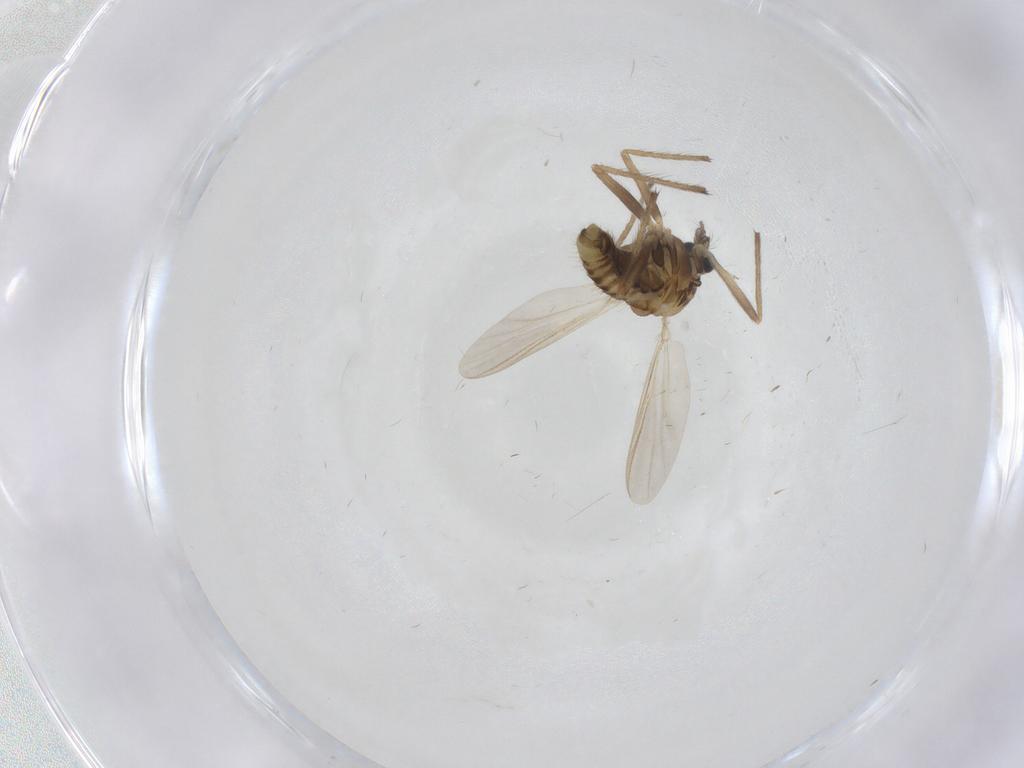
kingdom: Animalia
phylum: Arthropoda
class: Insecta
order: Diptera
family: Chironomidae
